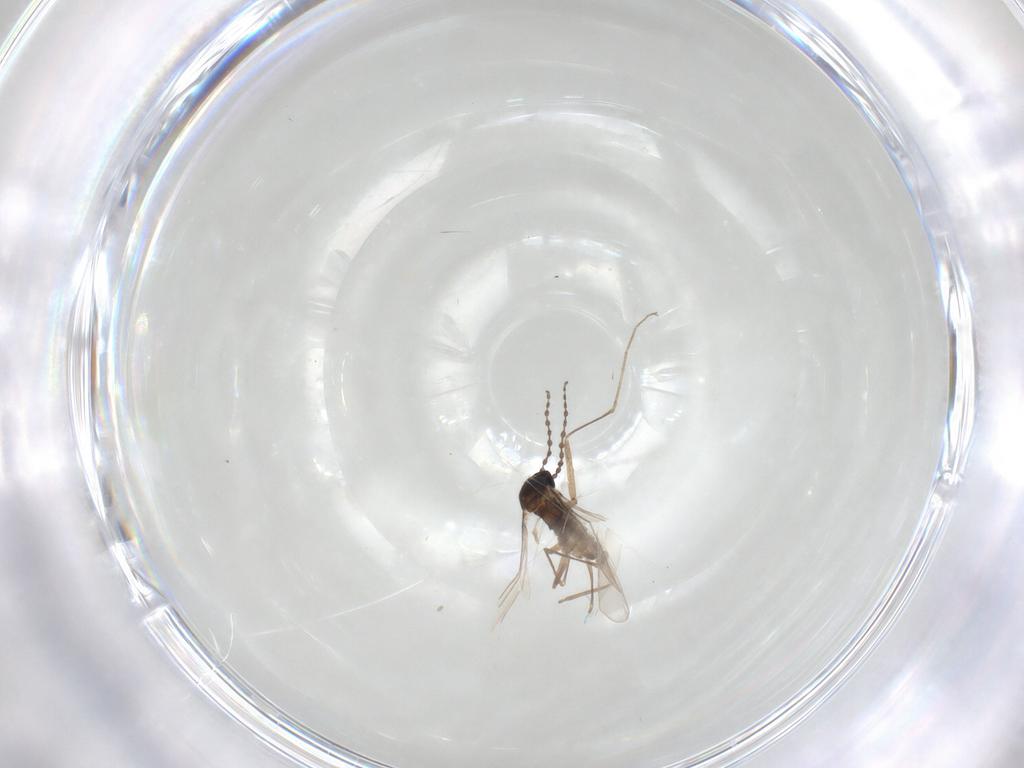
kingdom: Animalia
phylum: Arthropoda
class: Insecta
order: Diptera
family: Cecidomyiidae
